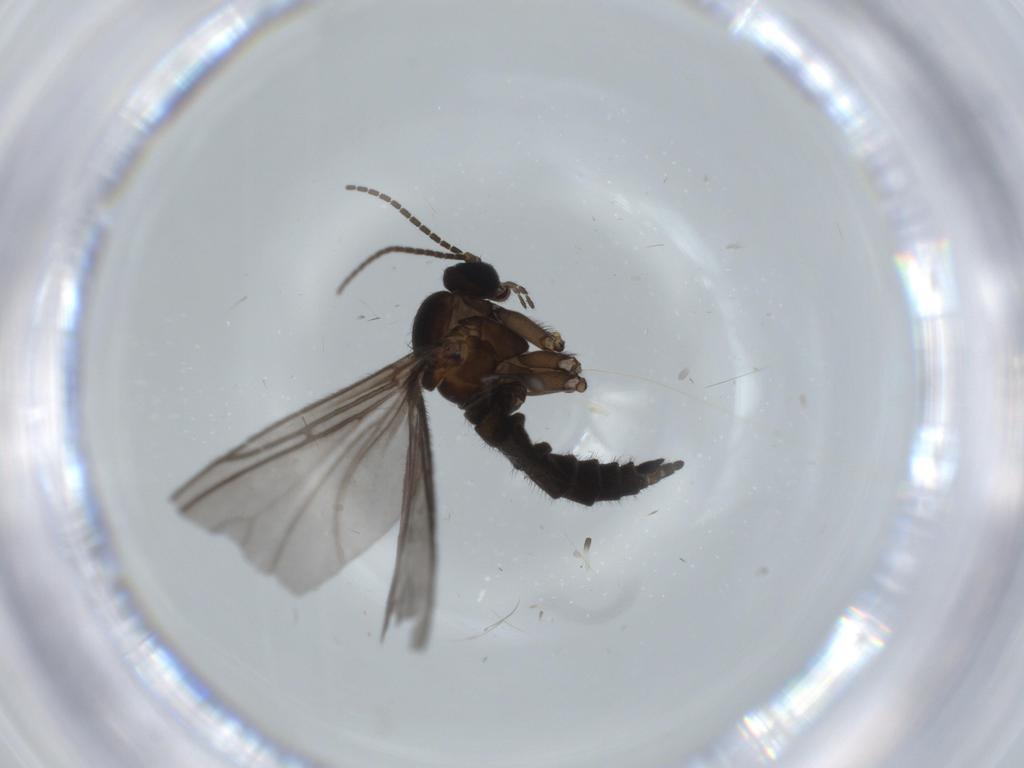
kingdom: Animalia
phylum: Arthropoda
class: Insecta
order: Diptera
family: Sciaridae
